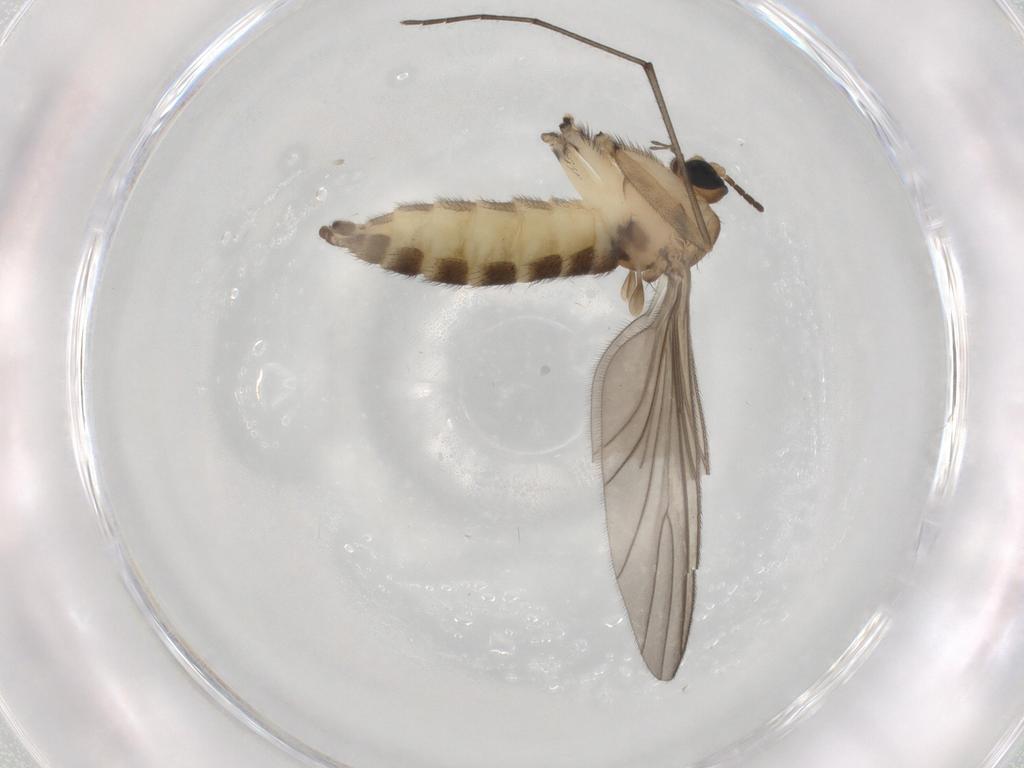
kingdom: Animalia
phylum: Arthropoda
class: Insecta
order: Diptera
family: Sciaridae
